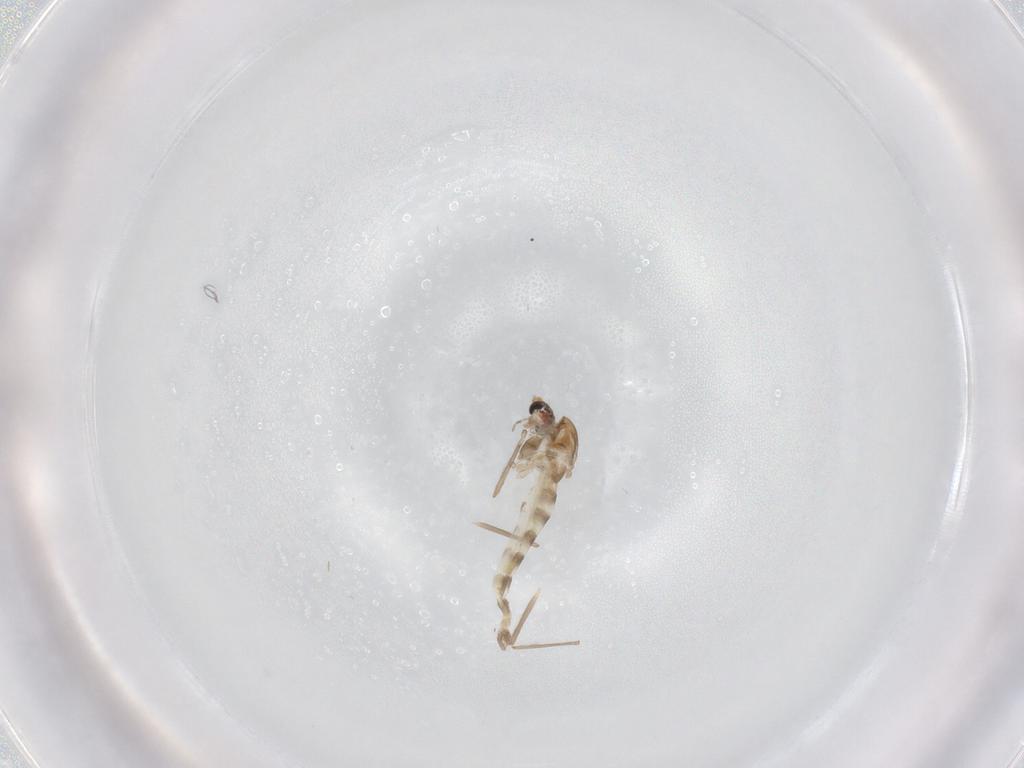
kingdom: Animalia
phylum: Arthropoda
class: Insecta
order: Diptera
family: Chironomidae
